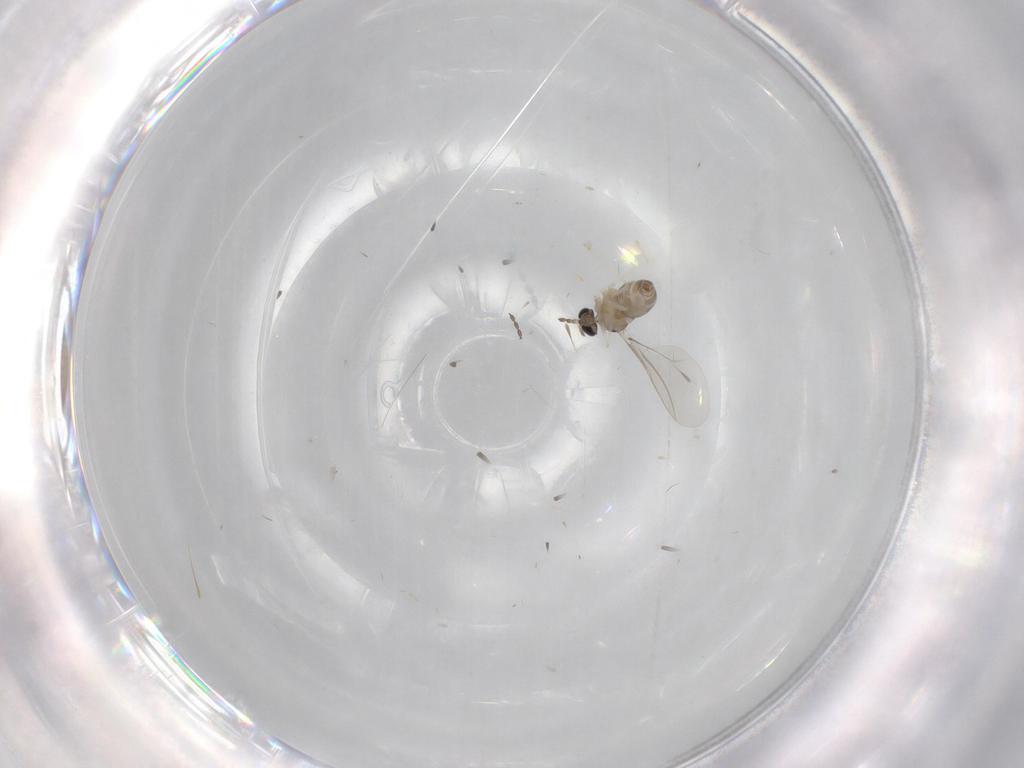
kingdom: Animalia
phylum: Arthropoda
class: Insecta
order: Diptera
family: Cecidomyiidae
